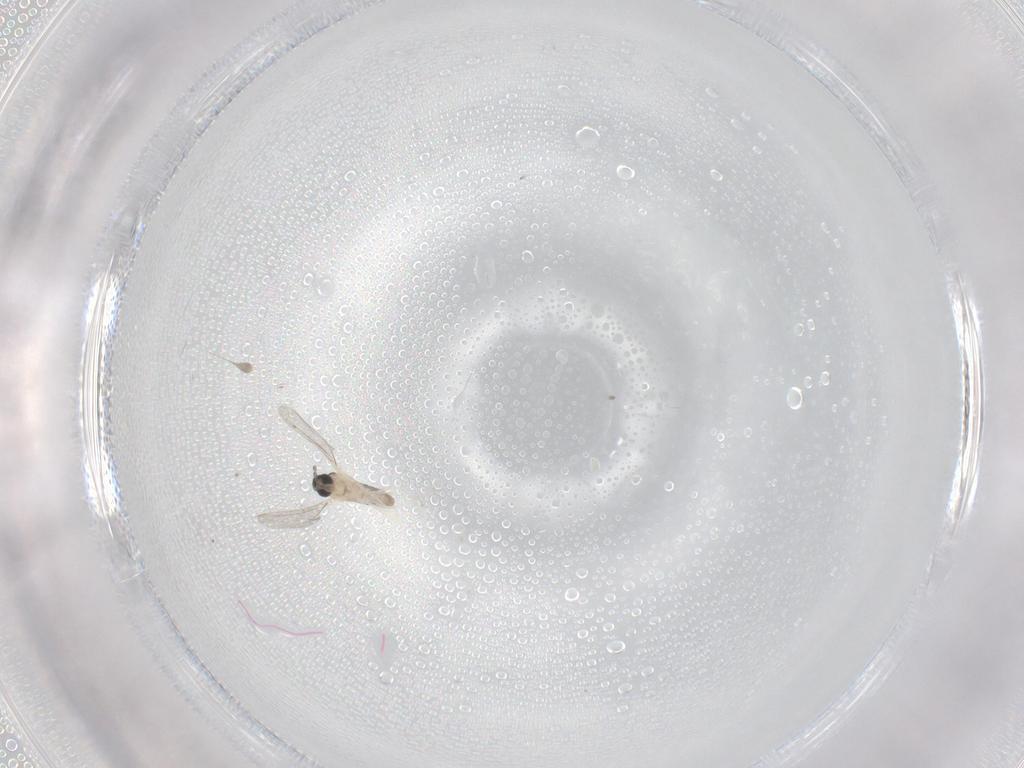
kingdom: Animalia
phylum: Arthropoda
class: Insecta
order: Diptera
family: Cecidomyiidae
